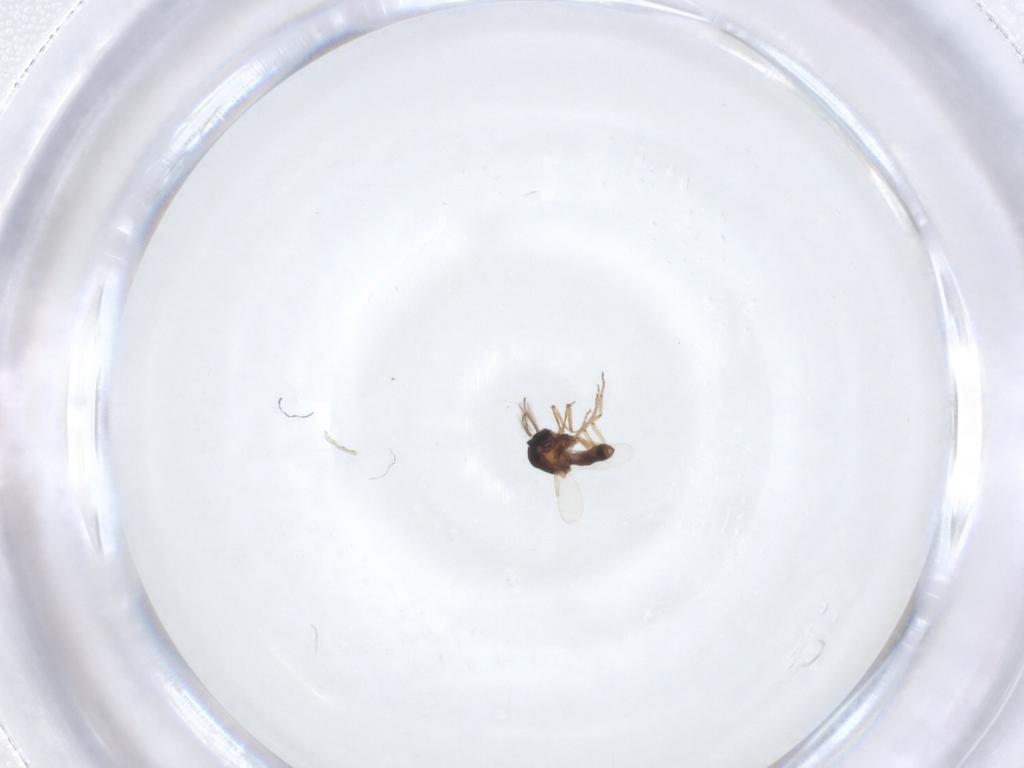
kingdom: Animalia
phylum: Arthropoda
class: Insecta
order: Diptera
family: Ceratopogonidae
